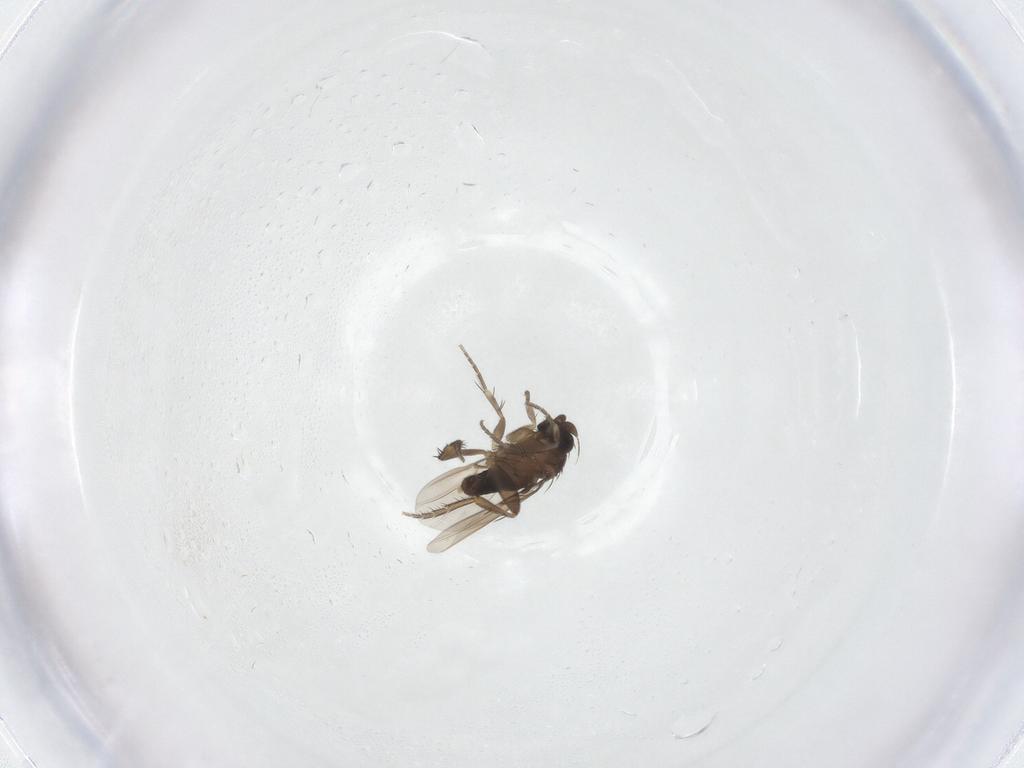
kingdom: Animalia
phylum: Arthropoda
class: Insecta
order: Diptera
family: Phoridae
